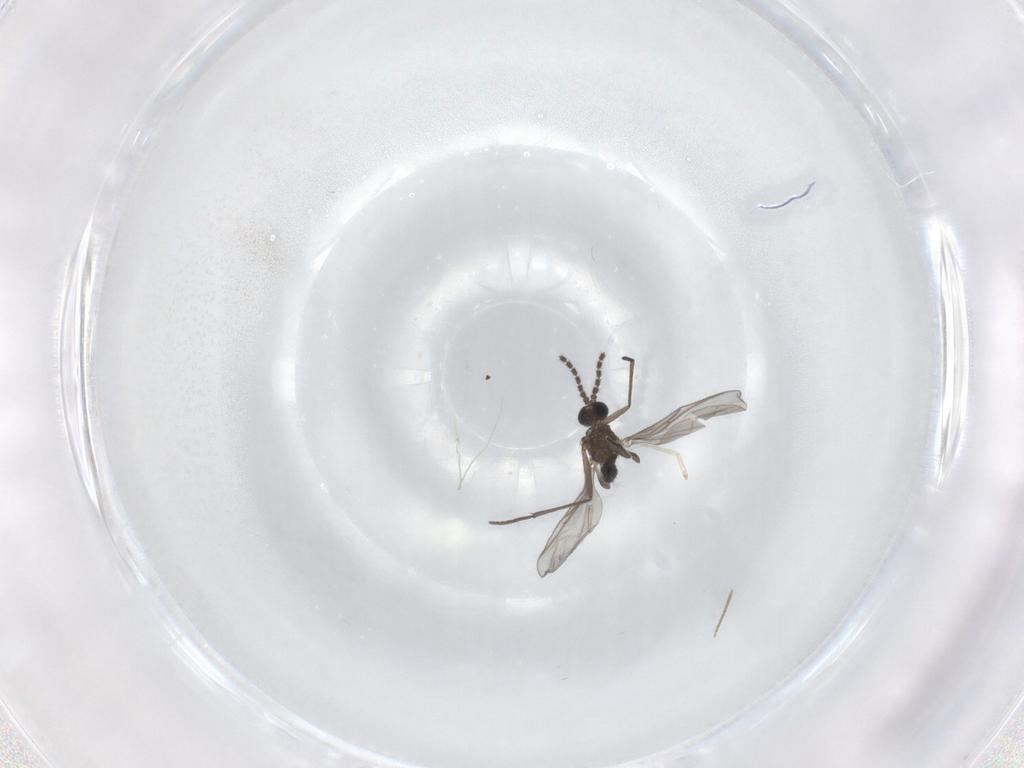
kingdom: Animalia
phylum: Arthropoda
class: Insecta
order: Diptera
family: Sciaridae
